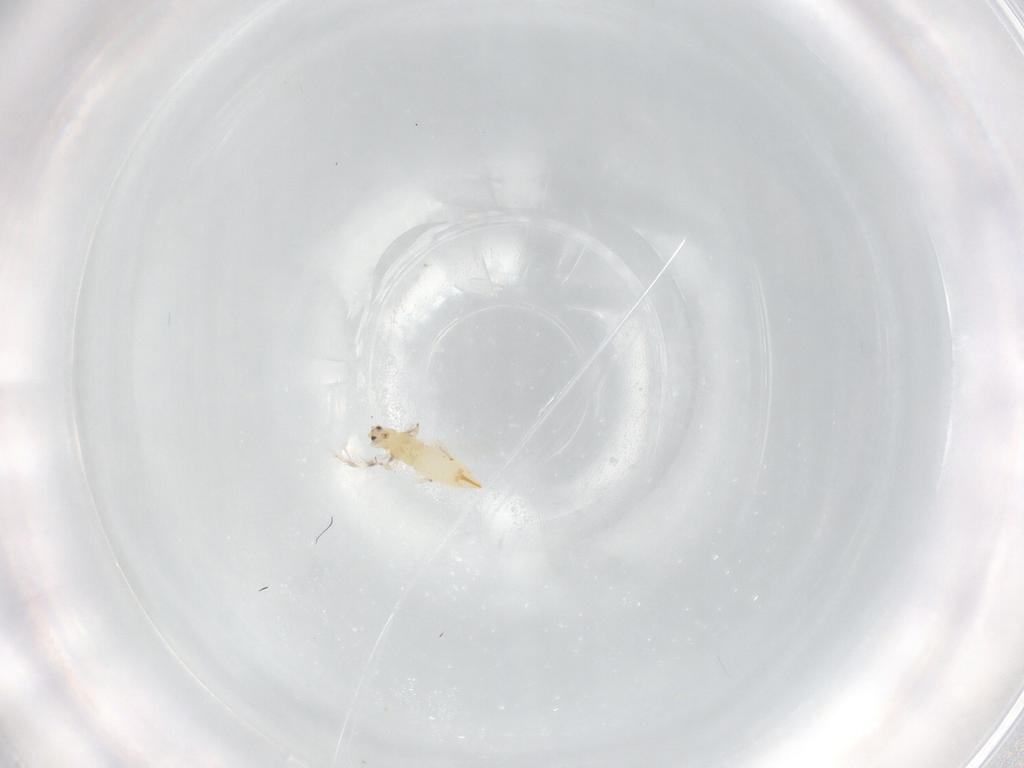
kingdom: Animalia
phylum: Arthropoda
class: Insecta
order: Thysanoptera
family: Thripidae
